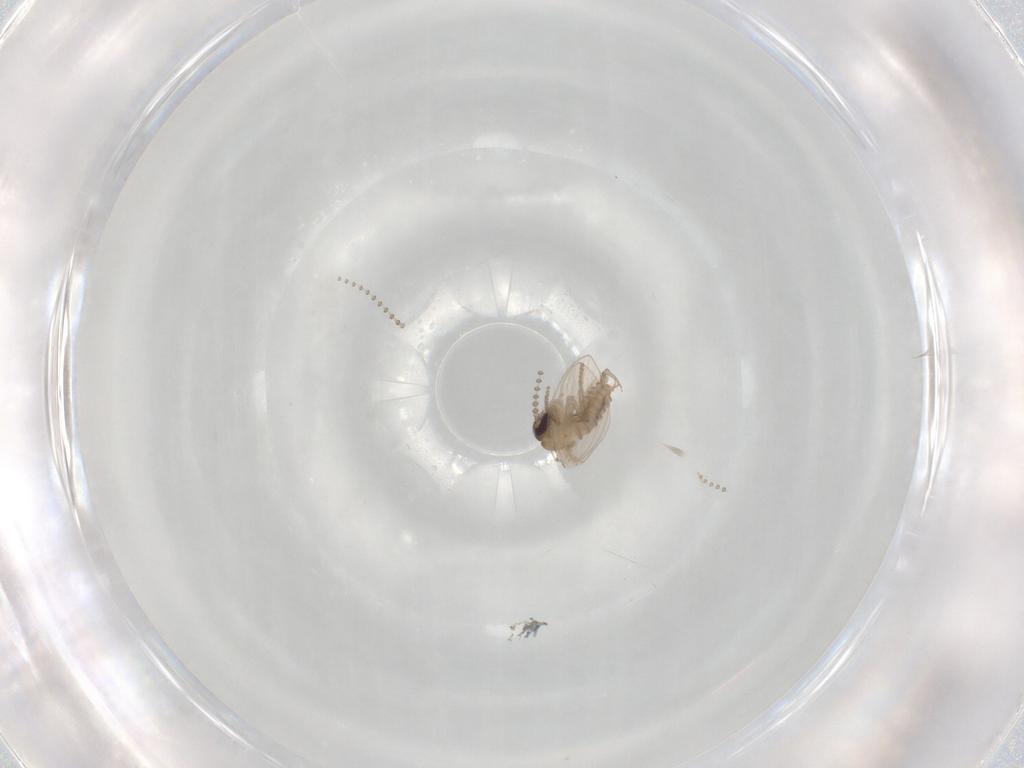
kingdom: Animalia
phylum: Arthropoda
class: Insecta
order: Diptera
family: Psychodidae
